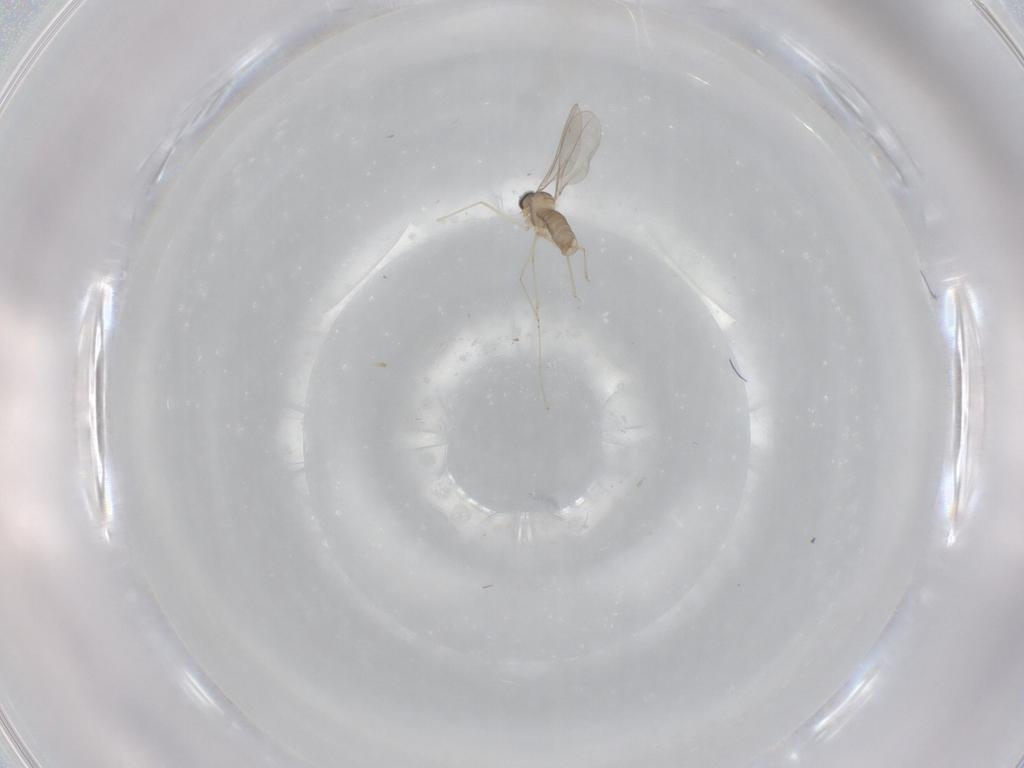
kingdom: Animalia
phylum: Arthropoda
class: Insecta
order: Diptera
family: Cecidomyiidae
